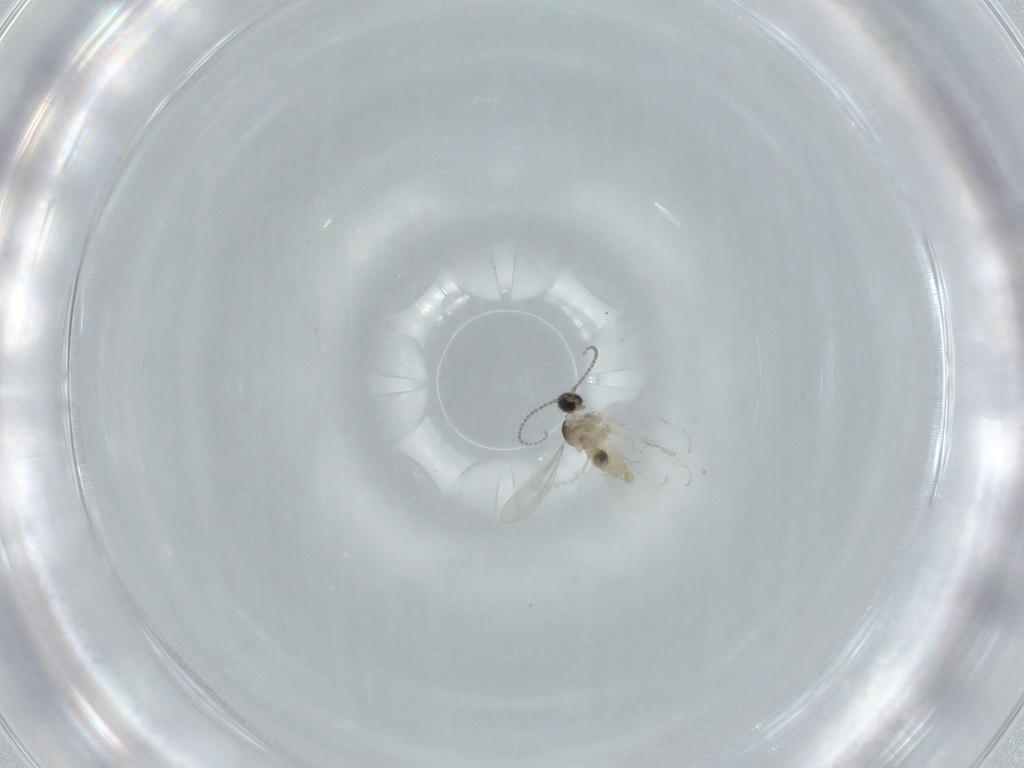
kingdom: Animalia
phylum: Arthropoda
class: Insecta
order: Diptera
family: Cecidomyiidae
